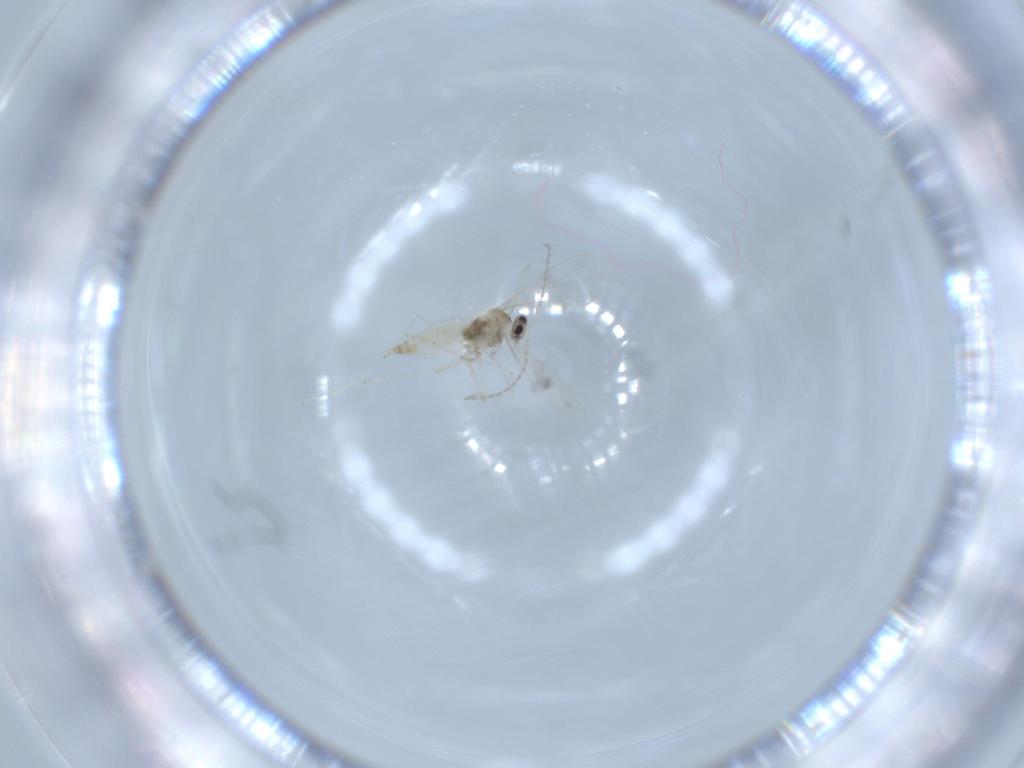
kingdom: Animalia
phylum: Arthropoda
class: Insecta
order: Diptera
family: Cecidomyiidae
